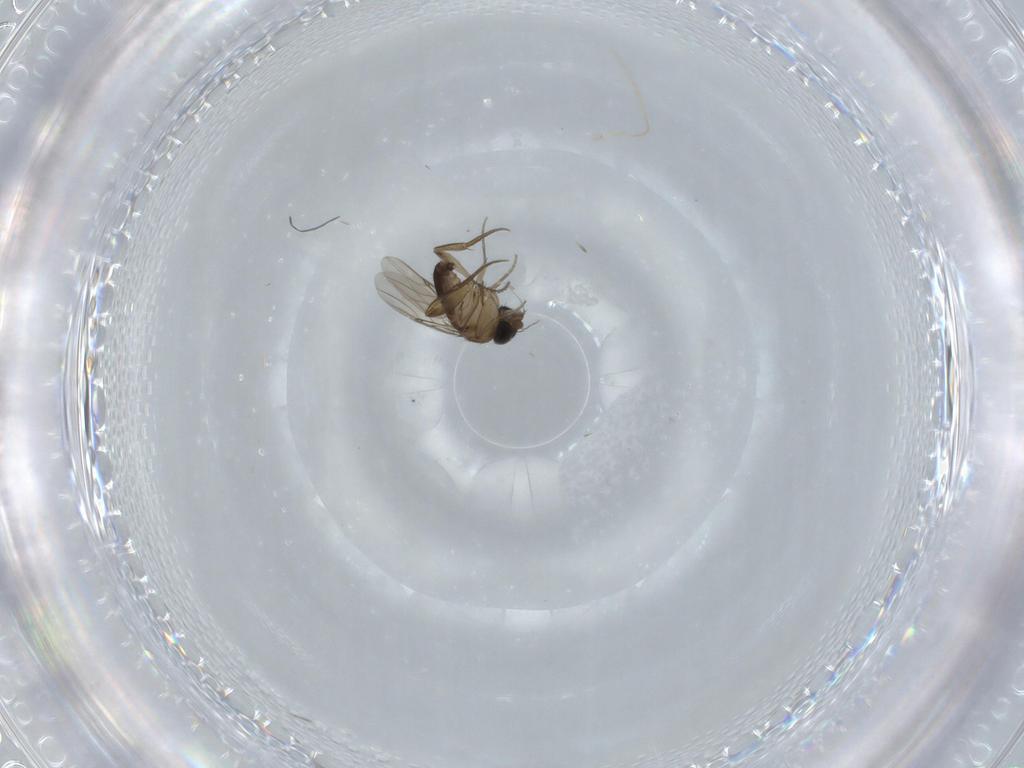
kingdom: Animalia
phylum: Arthropoda
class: Insecta
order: Diptera
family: Phoridae
